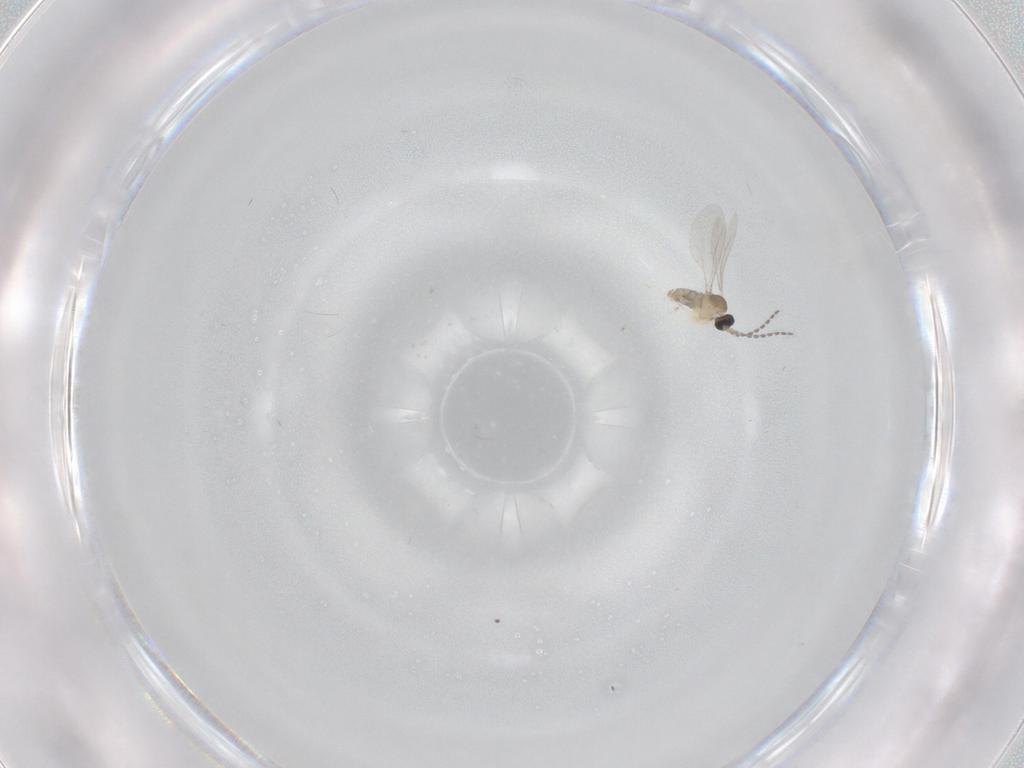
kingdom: Animalia
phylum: Arthropoda
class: Insecta
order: Diptera
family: Cecidomyiidae
